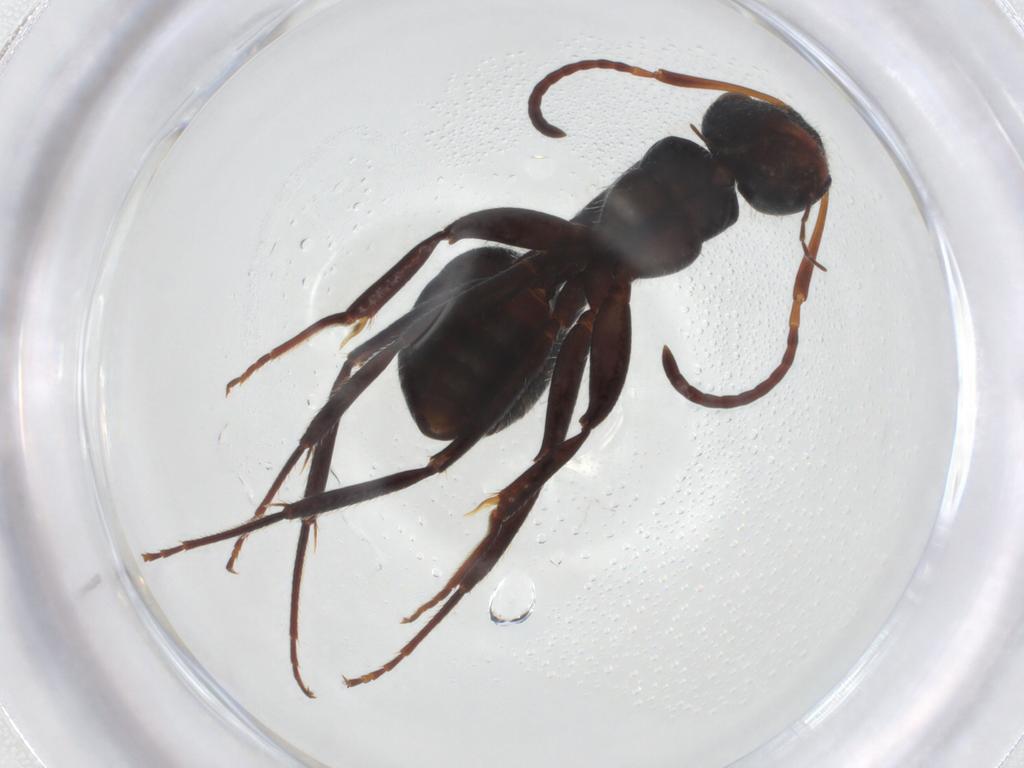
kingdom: Animalia
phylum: Arthropoda
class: Insecta
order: Hymenoptera
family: Formicidae
